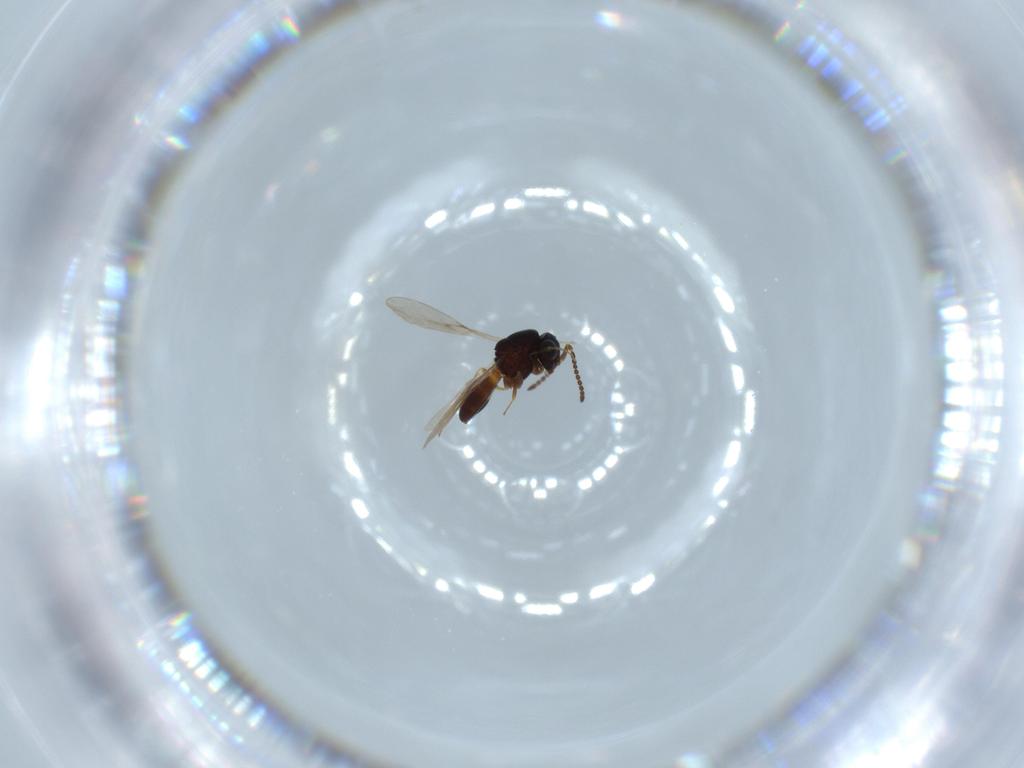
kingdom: Animalia
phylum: Arthropoda
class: Insecta
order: Hymenoptera
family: Scelionidae
